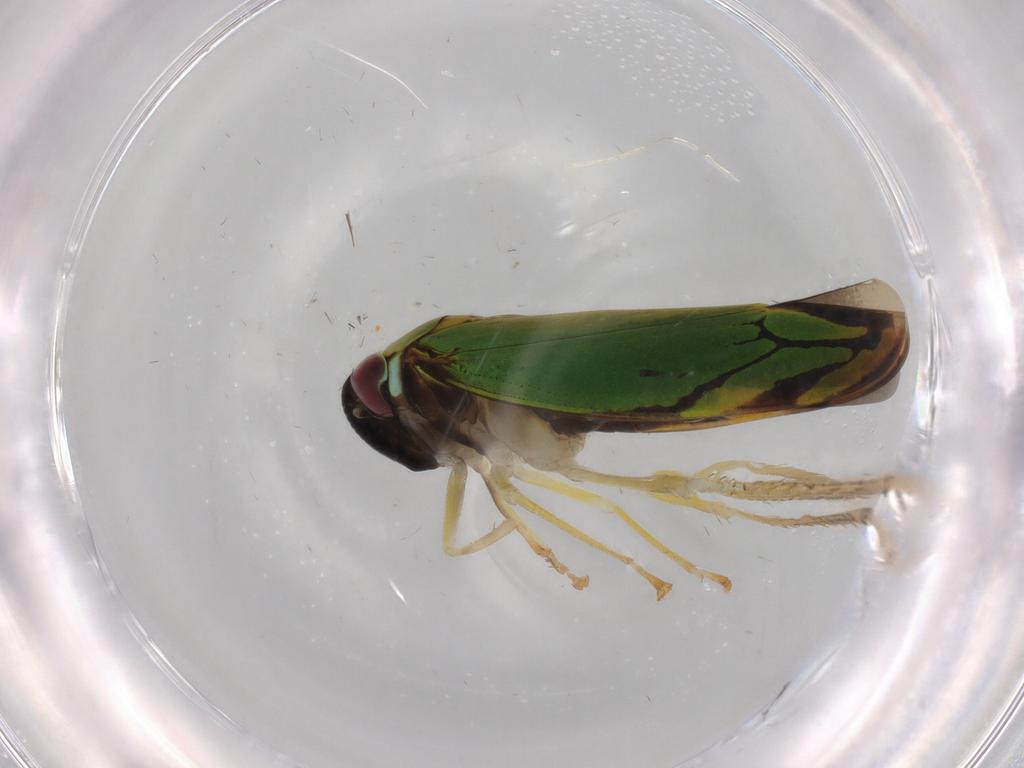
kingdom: Animalia
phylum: Arthropoda
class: Insecta
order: Hemiptera
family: Cicadellidae
